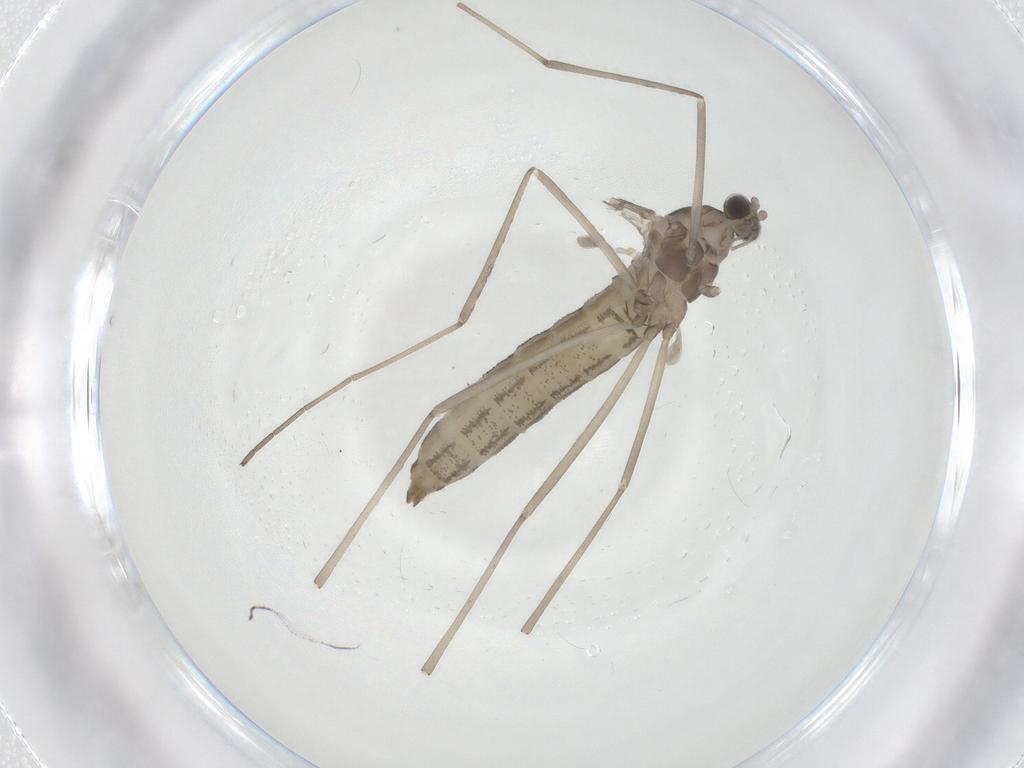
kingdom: Animalia
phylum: Arthropoda
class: Insecta
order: Diptera
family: Cecidomyiidae
